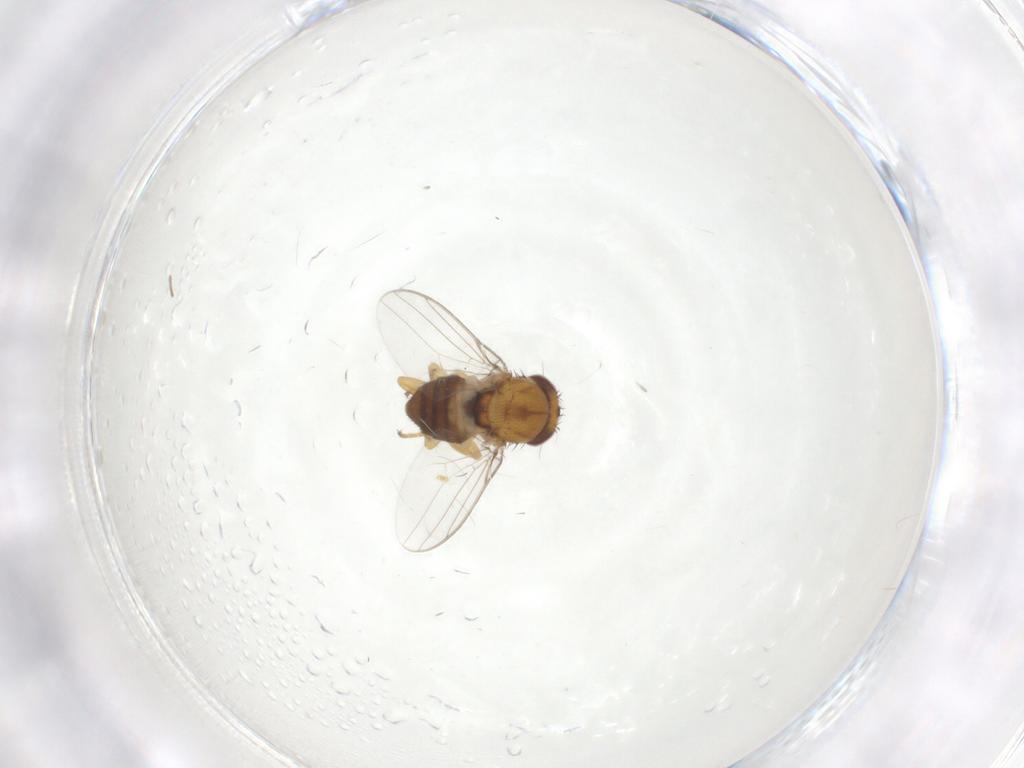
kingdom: Animalia
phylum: Arthropoda
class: Insecta
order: Diptera
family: Chloropidae
